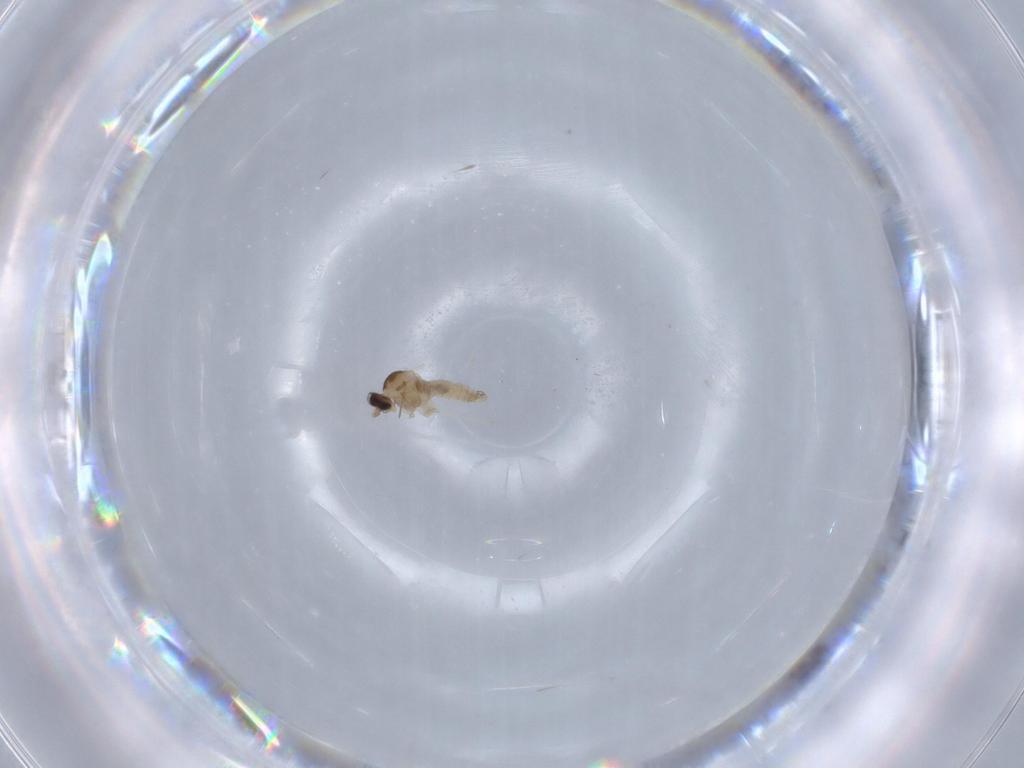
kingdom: Animalia
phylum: Arthropoda
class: Insecta
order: Diptera
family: Cecidomyiidae
